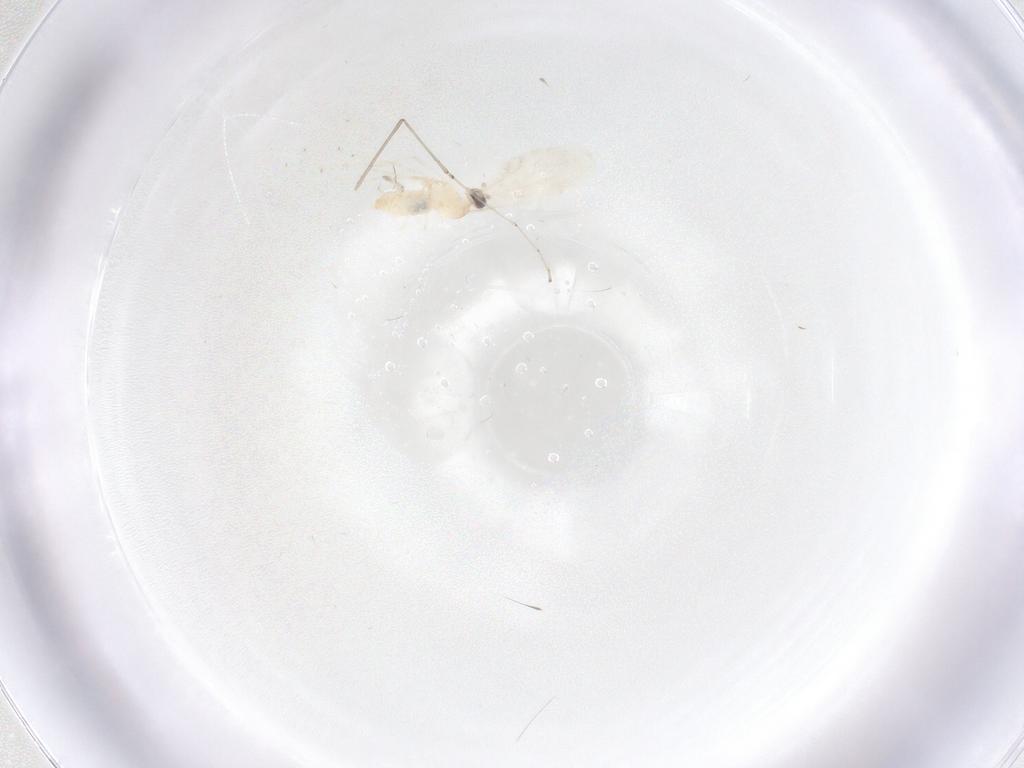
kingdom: Animalia
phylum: Arthropoda
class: Insecta
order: Diptera
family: Cecidomyiidae
